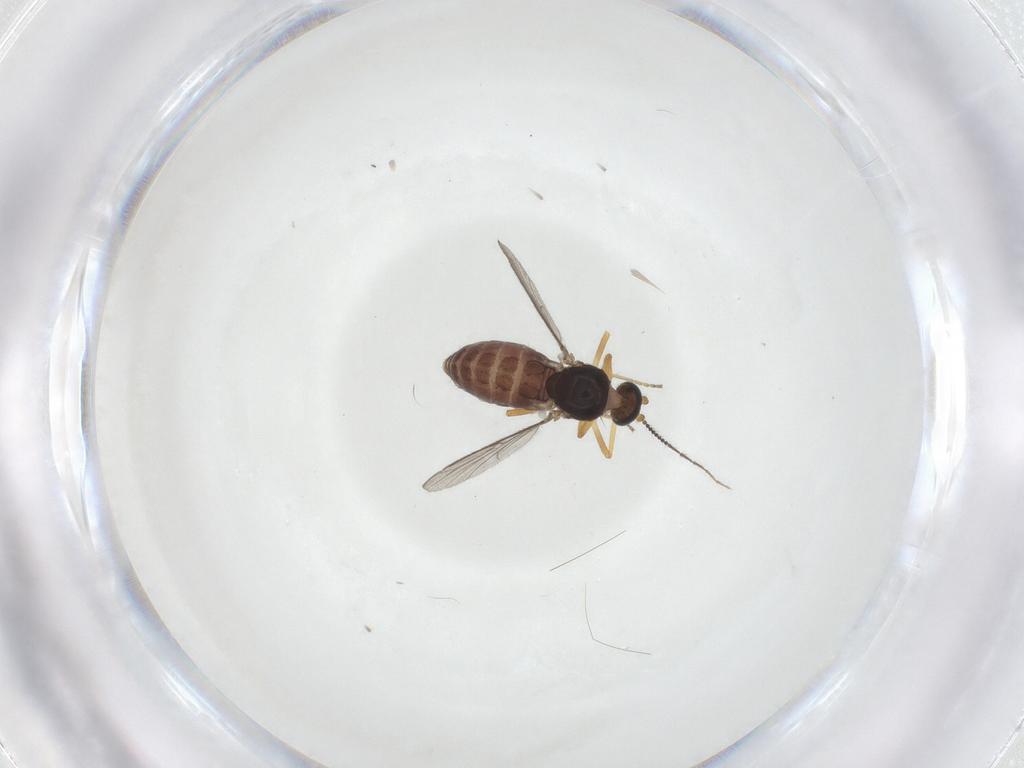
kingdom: Animalia
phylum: Arthropoda
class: Insecta
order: Diptera
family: Ceratopogonidae
